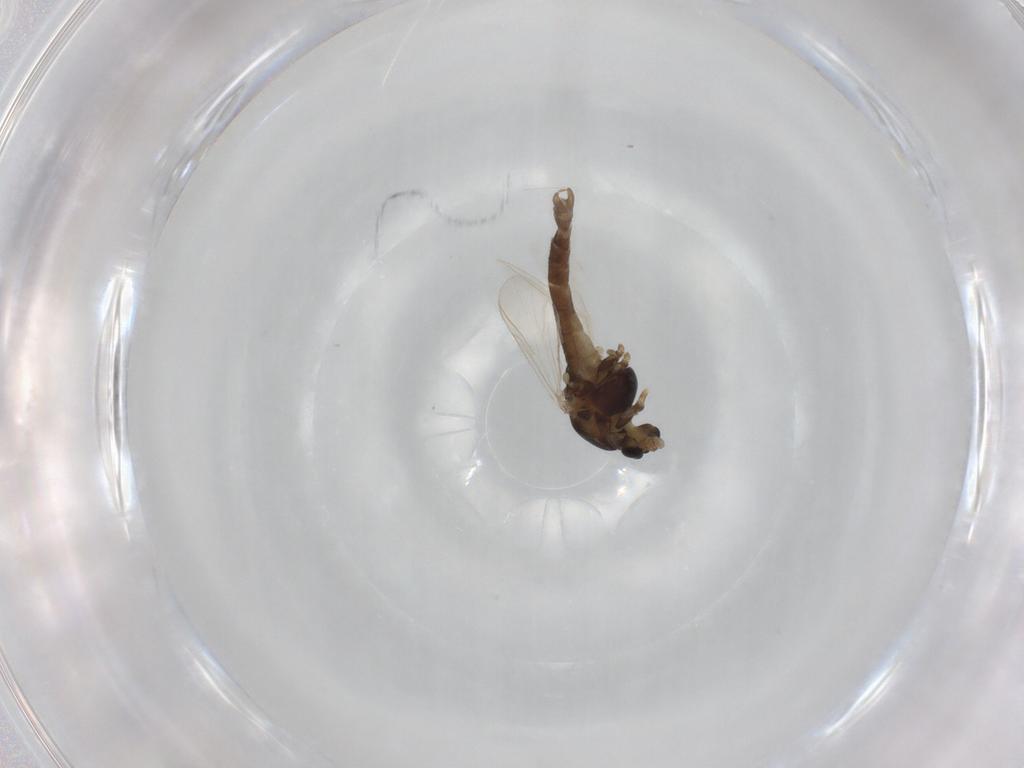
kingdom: Animalia
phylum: Arthropoda
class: Insecta
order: Diptera
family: Chironomidae
